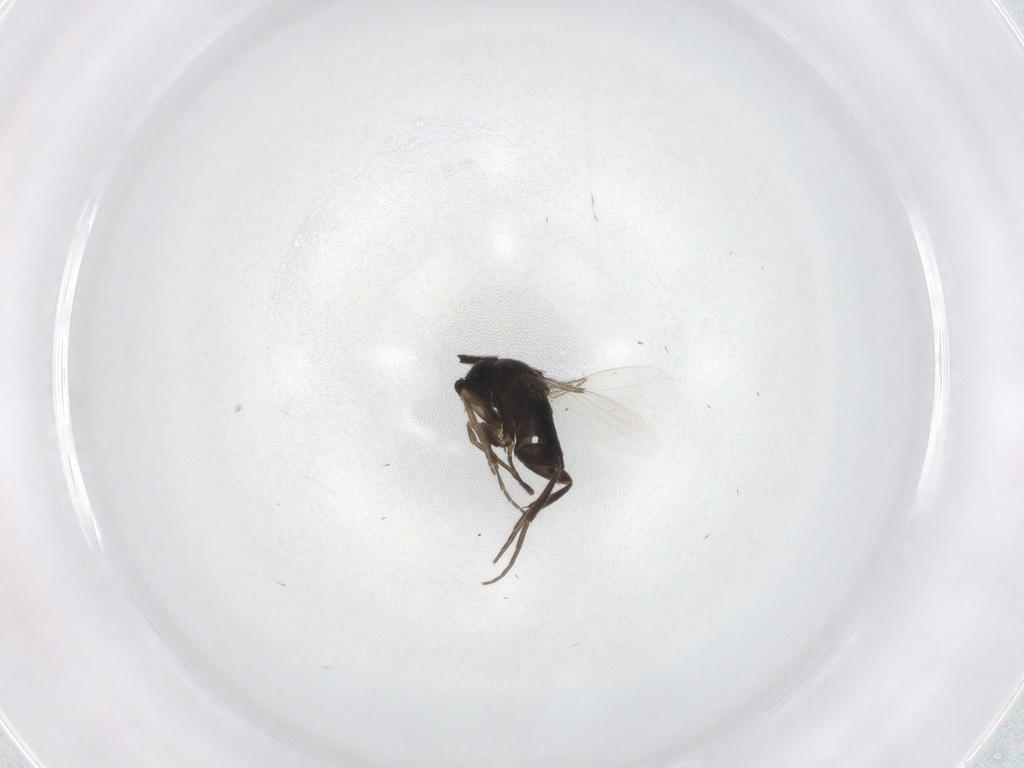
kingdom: Animalia
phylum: Arthropoda
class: Insecta
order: Diptera
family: Phoridae
